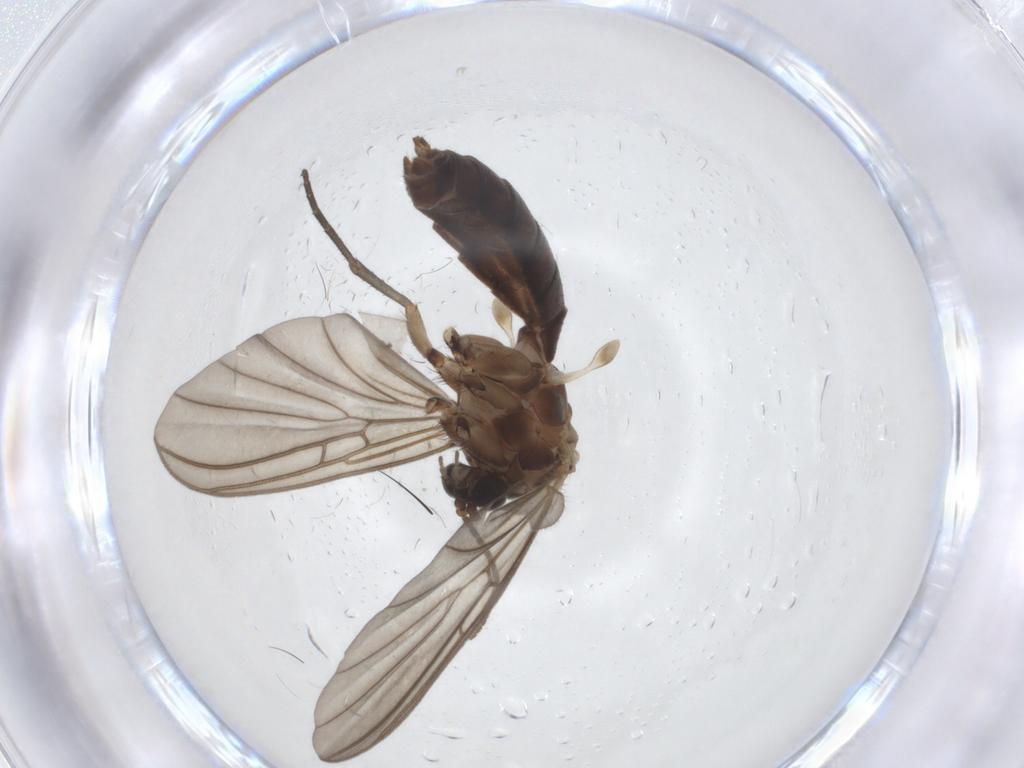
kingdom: Animalia
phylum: Arthropoda
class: Insecta
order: Diptera
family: Mycetophilidae
